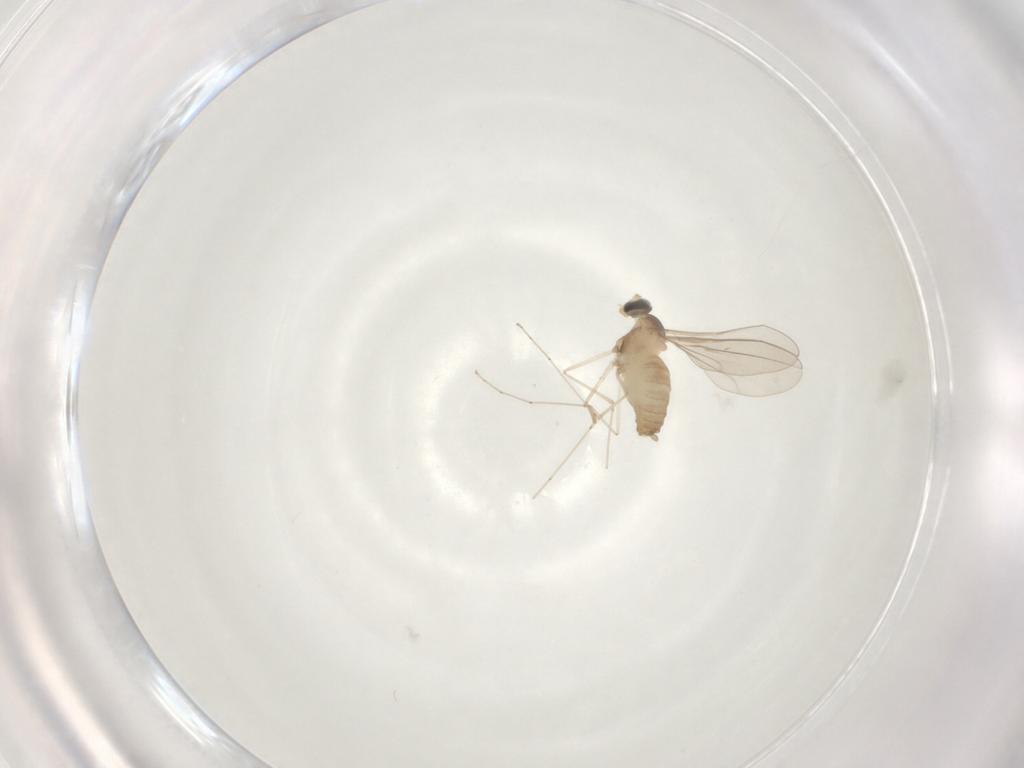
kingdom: Animalia
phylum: Arthropoda
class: Insecta
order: Diptera
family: Cecidomyiidae
